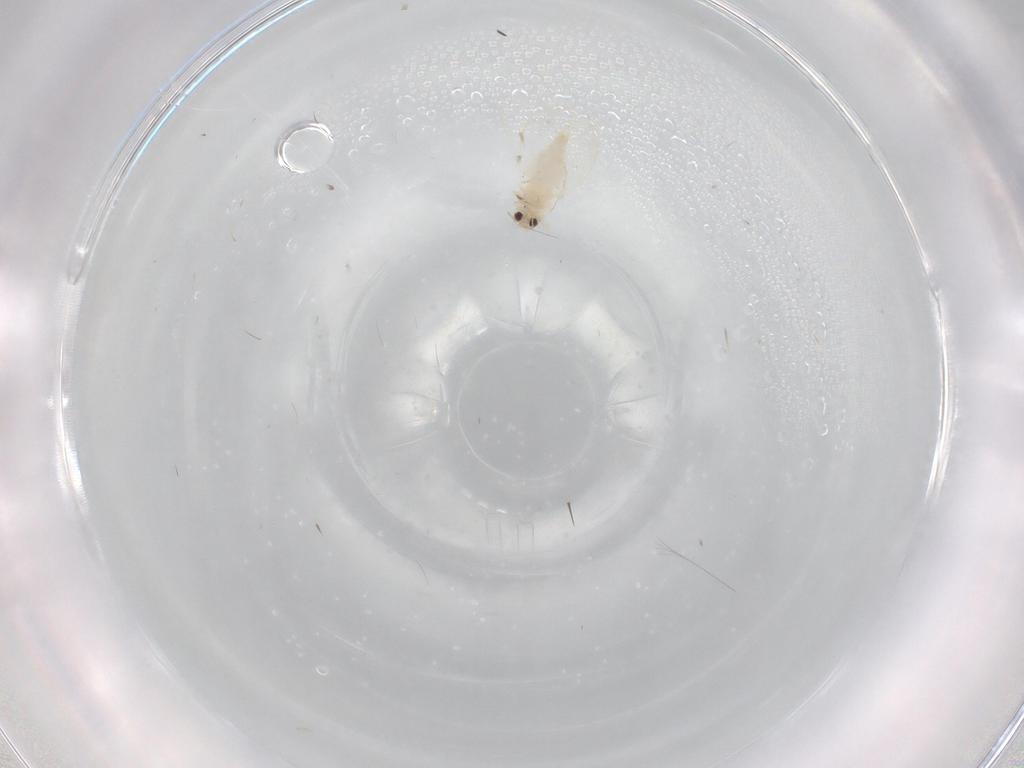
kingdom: Animalia
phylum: Arthropoda
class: Insecta
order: Hemiptera
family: Aleyrodidae
